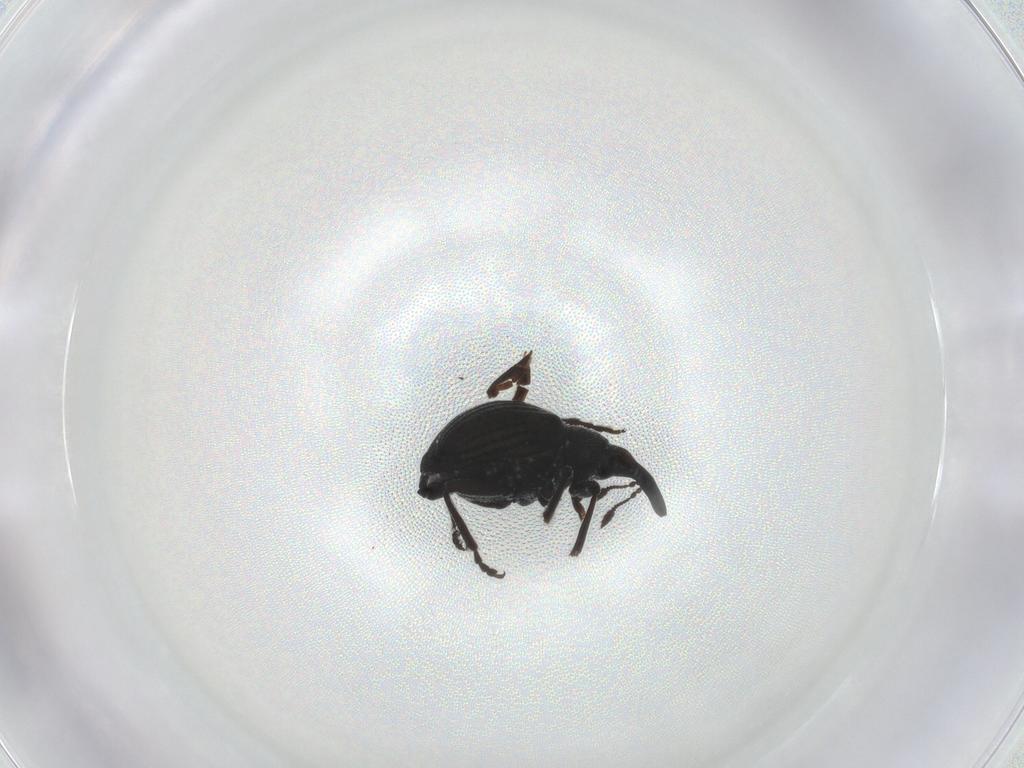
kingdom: Animalia
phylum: Arthropoda
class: Insecta
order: Coleoptera
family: Brentidae
